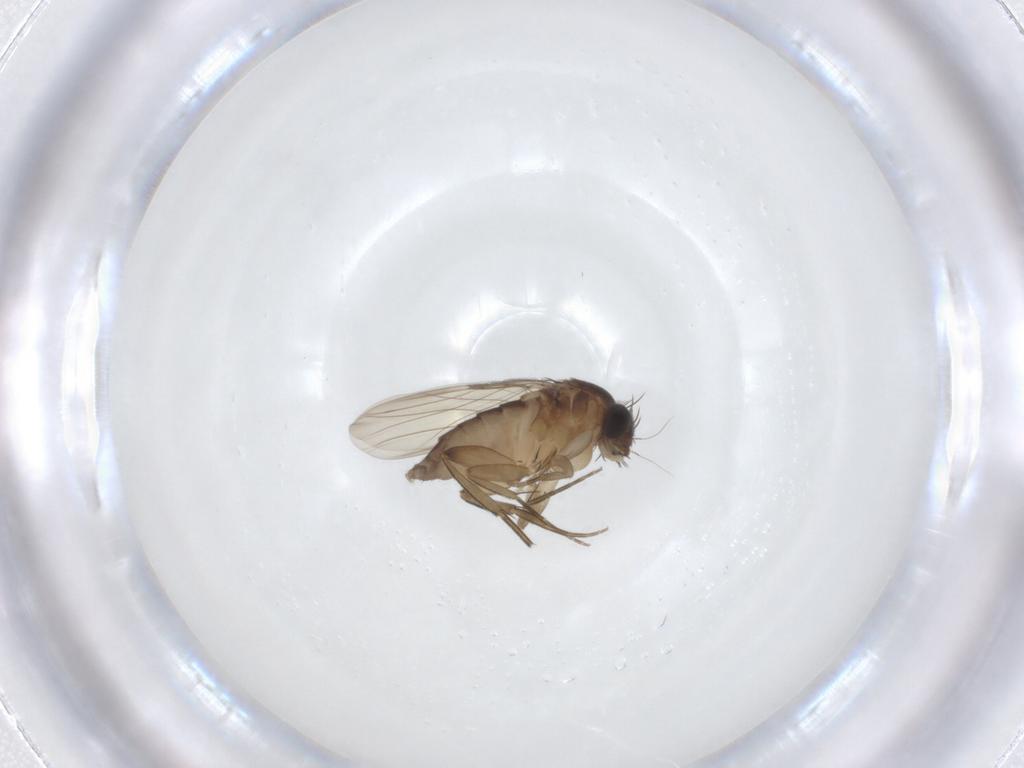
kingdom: Animalia
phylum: Arthropoda
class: Insecta
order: Diptera
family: Phoridae
